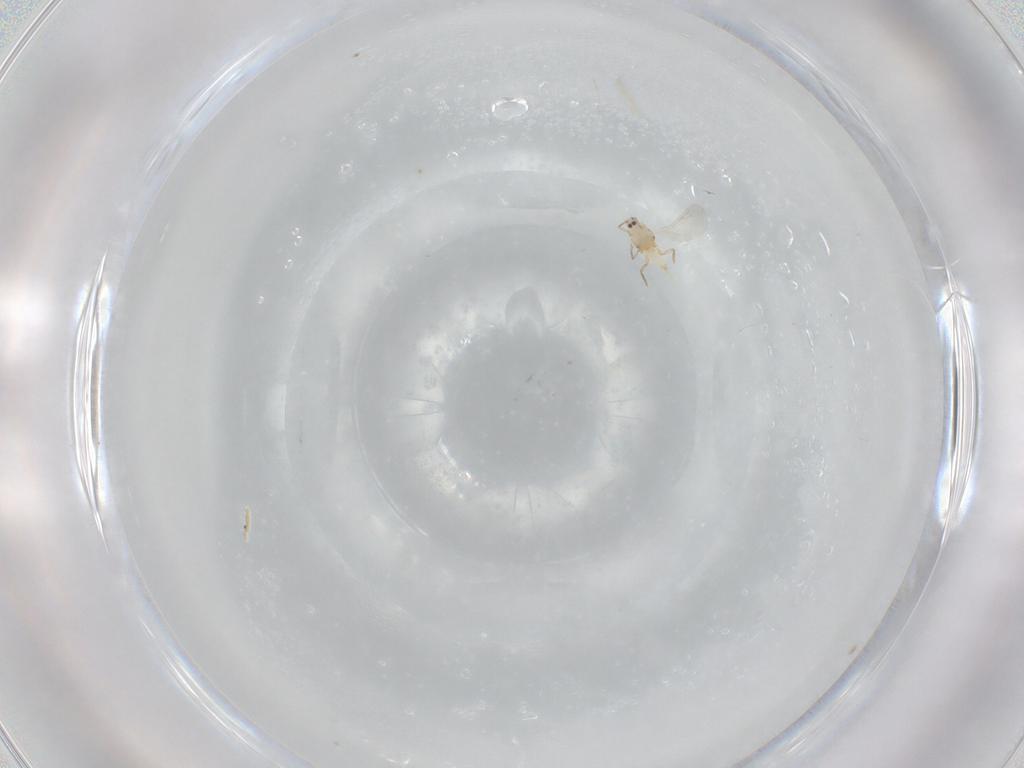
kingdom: Animalia
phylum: Arthropoda
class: Insecta
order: Hemiptera
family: Diaspididae
